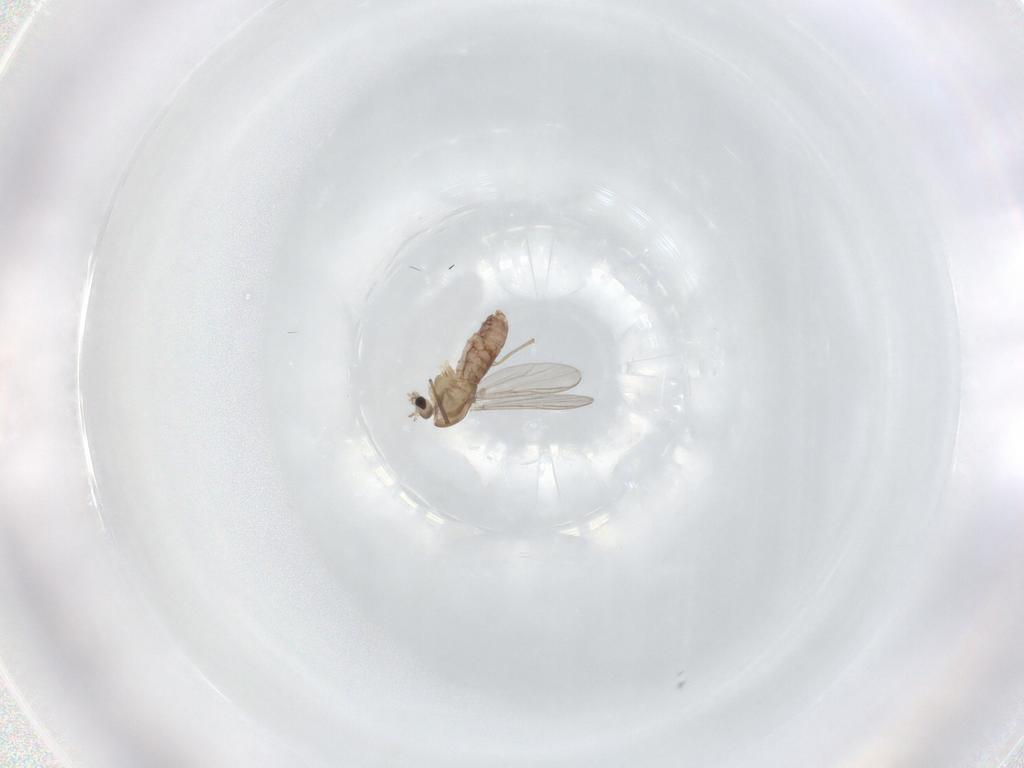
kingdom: Animalia
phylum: Arthropoda
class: Insecta
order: Diptera
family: Chironomidae
